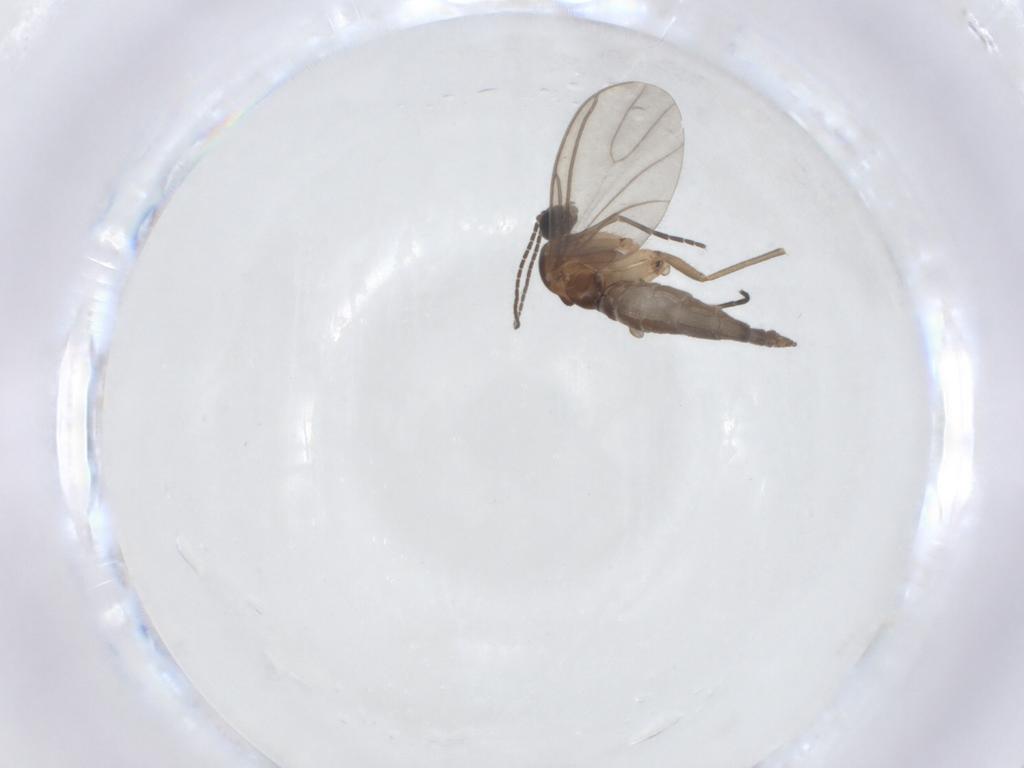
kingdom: Animalia
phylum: Arthropoda
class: Insecta
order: Diptera
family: Sciaridae
